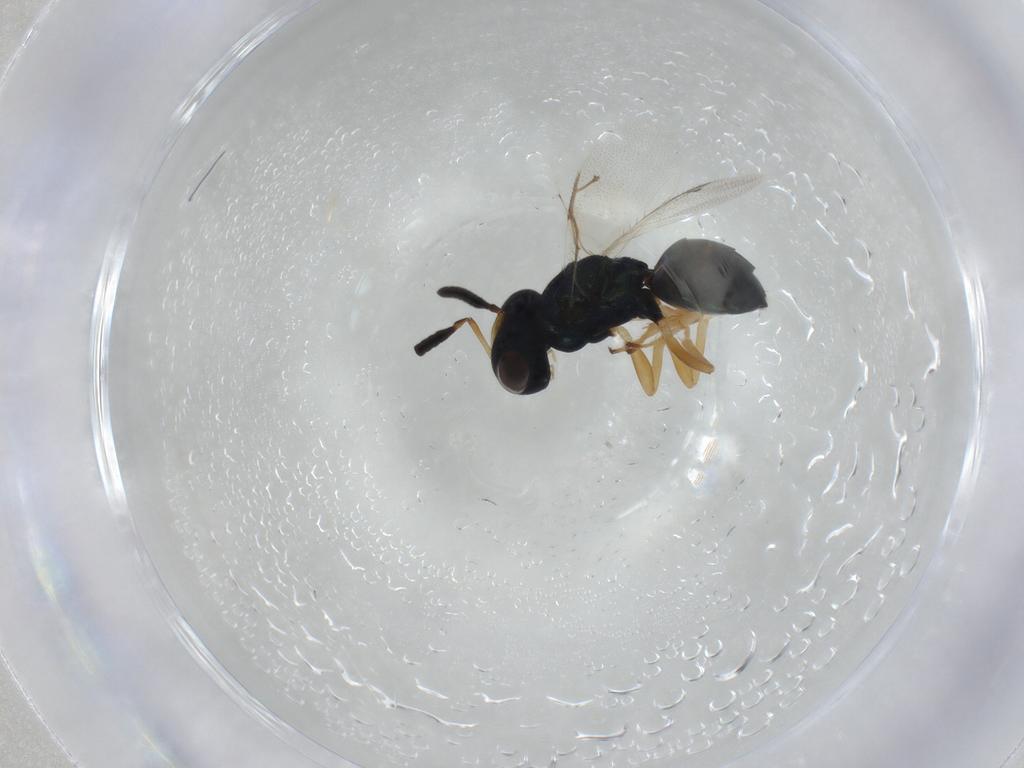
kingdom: Animalia
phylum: Arthropoda
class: Insecta
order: Hymenoptera
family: Pteromalidae
